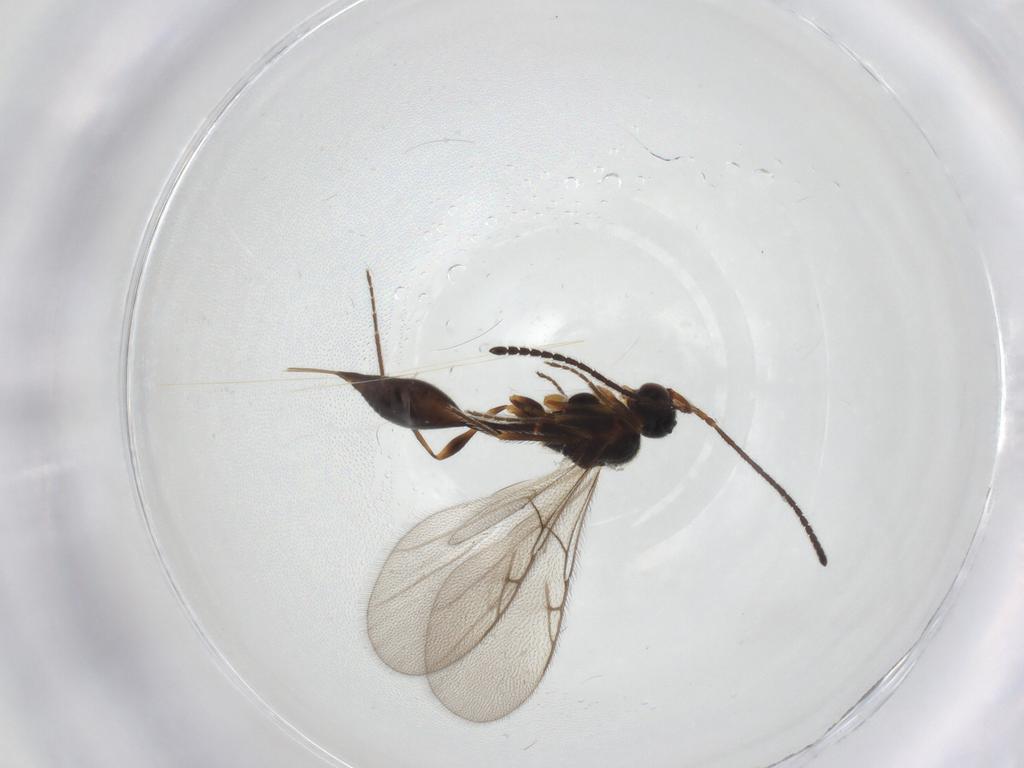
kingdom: Animalia
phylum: Arthropoda
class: Insecta
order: Hymenoptera
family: Diapriidae
